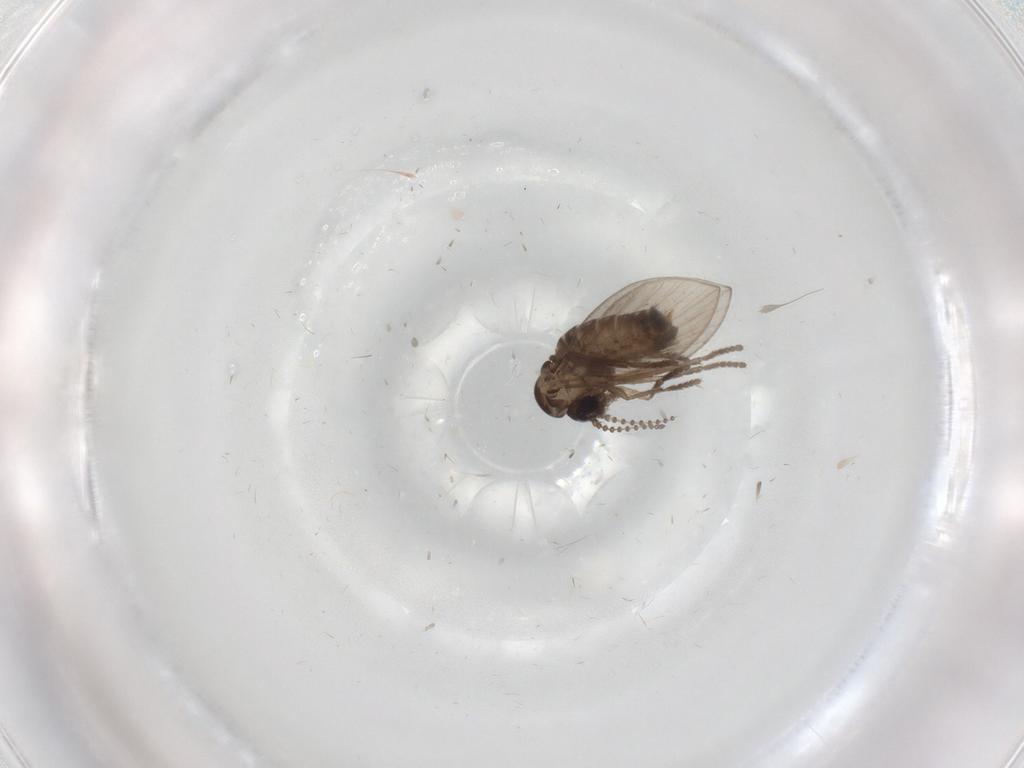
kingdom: Animalia
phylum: Arthropoda
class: Insecta
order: Diptera
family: Psychodidae
